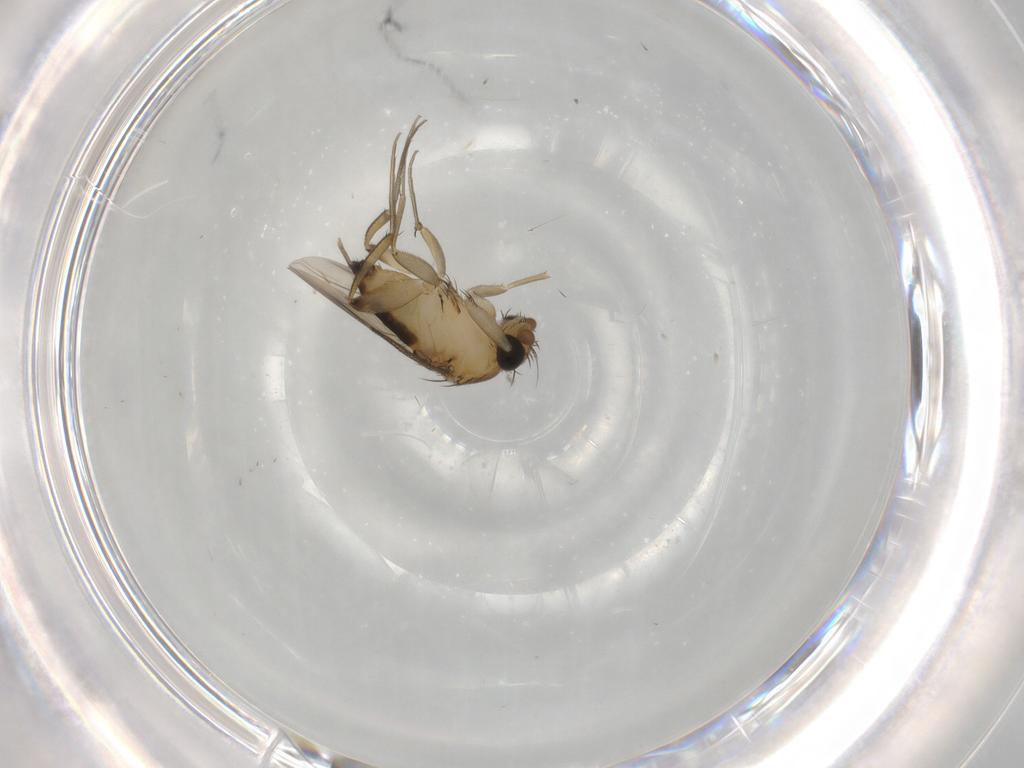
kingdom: Animalia
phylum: Arthropoda
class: Insecta
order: Diptera
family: Phoridae
